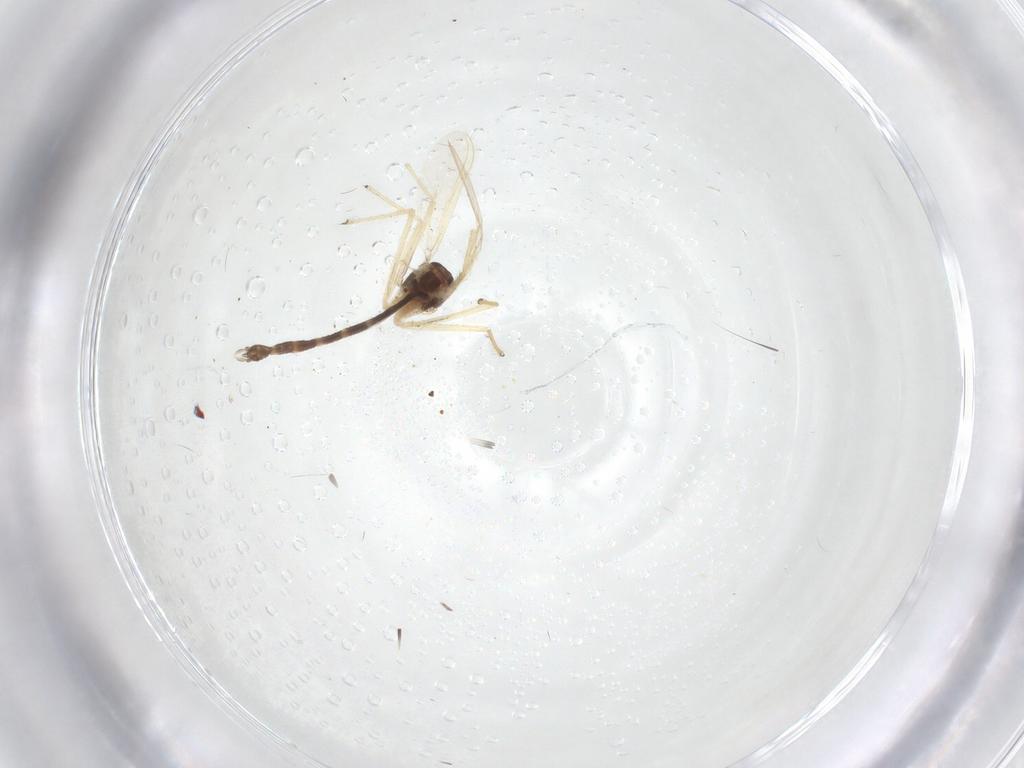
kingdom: Animalia
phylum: Arthropoda
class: Insecta
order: Diptera
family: Chironomidae
